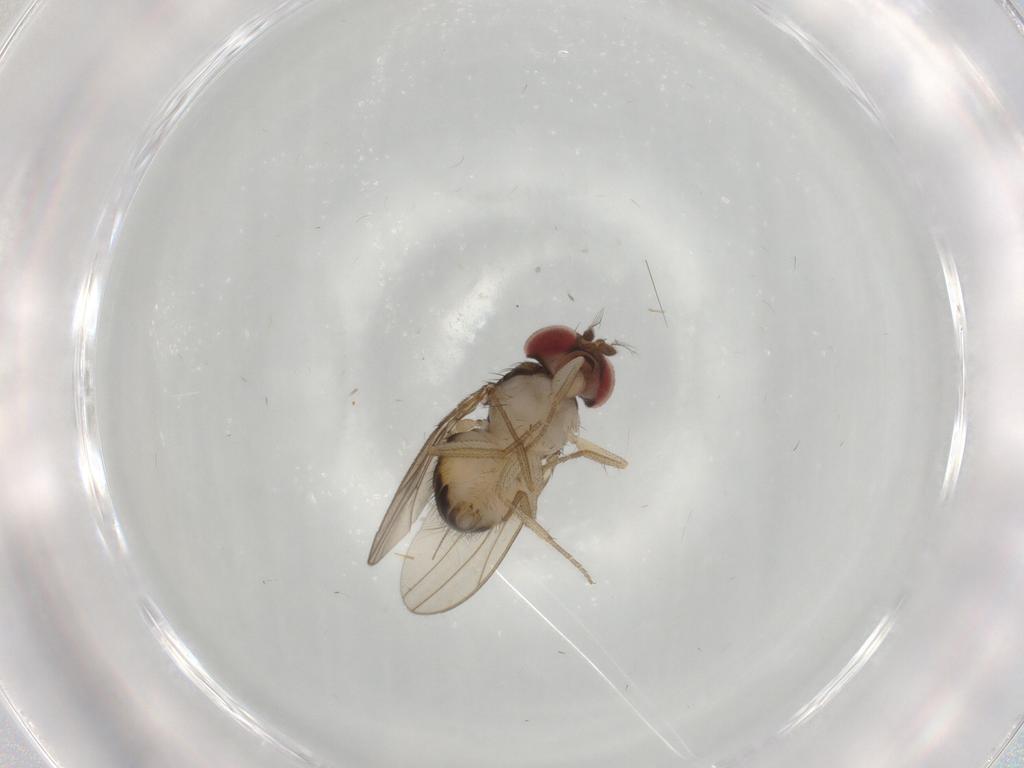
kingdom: Animalia
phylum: Arthropoda
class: Insecta
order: Diptera
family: Drosophilidae
